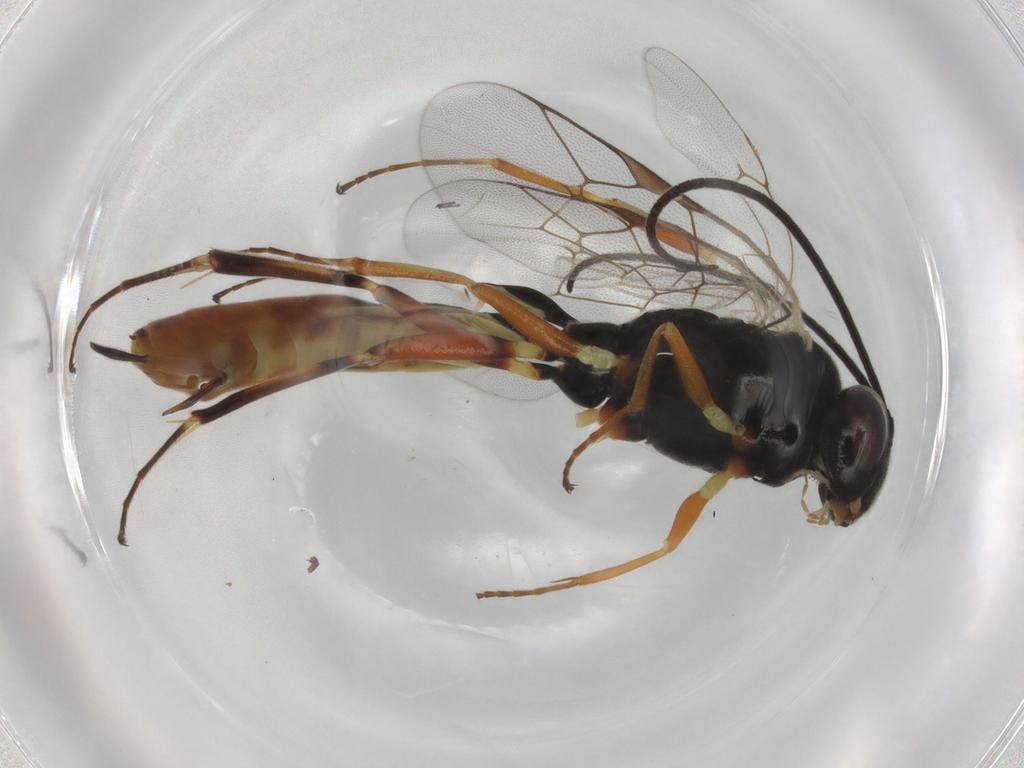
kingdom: Animalia
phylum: Arthropoda
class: Insecta
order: Hymenoptera
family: Ichneumonidae
